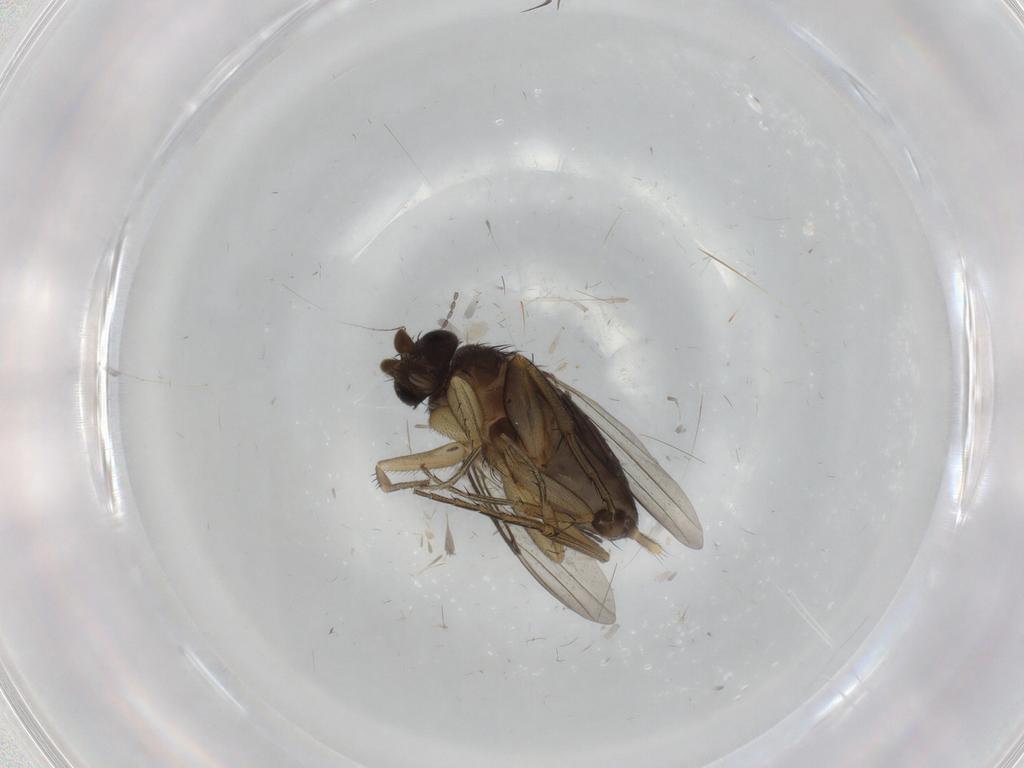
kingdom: Animalia
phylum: Arthropoda
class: Insecta
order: Diptera
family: Phoridae
